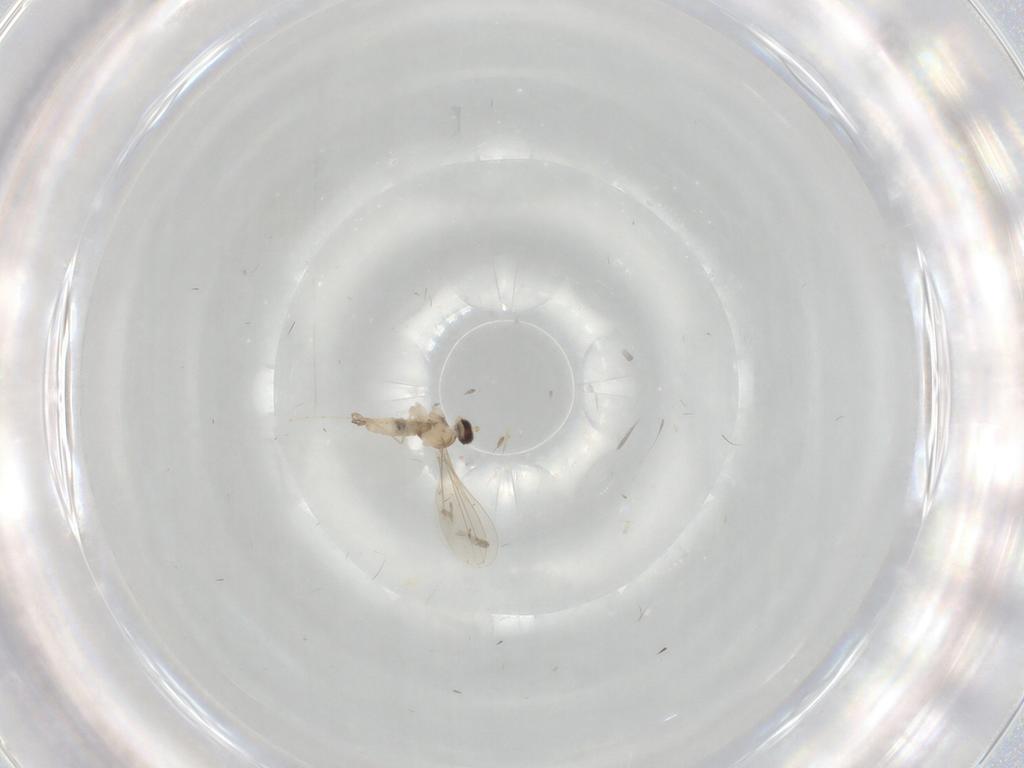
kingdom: Animalia
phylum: Arthropoda
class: Insecta
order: Diptera
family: Cecidomyiidae
